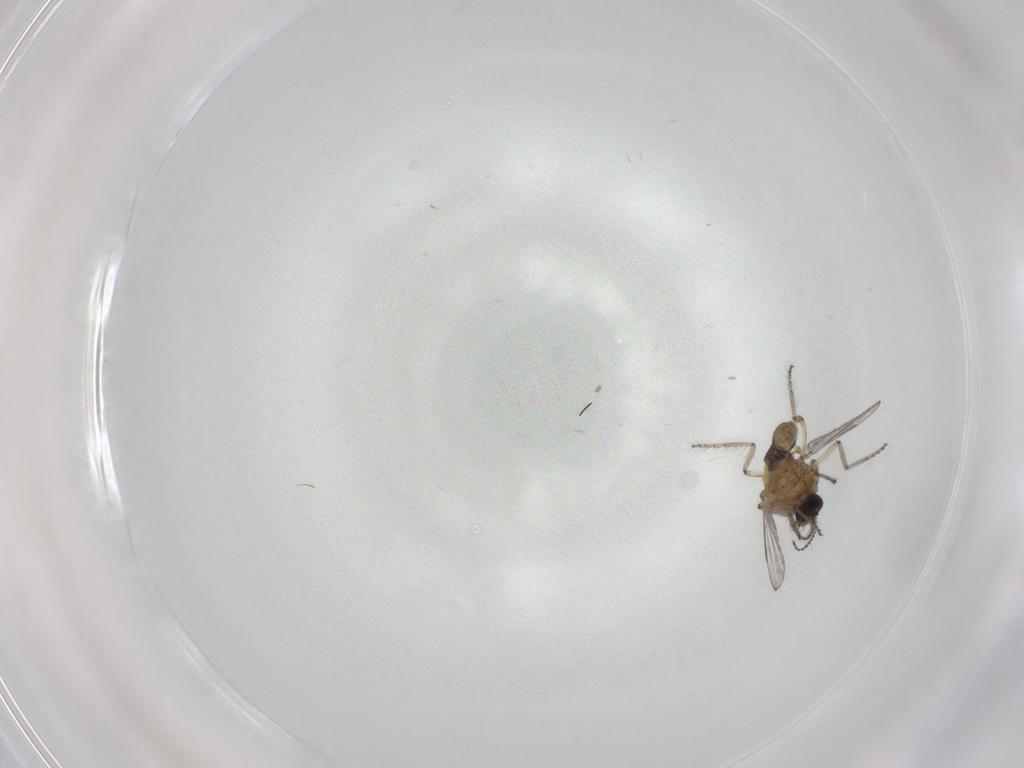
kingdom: Animalia
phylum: Arthropoda
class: Insecta
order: Diptera
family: Ceratopogonidae
